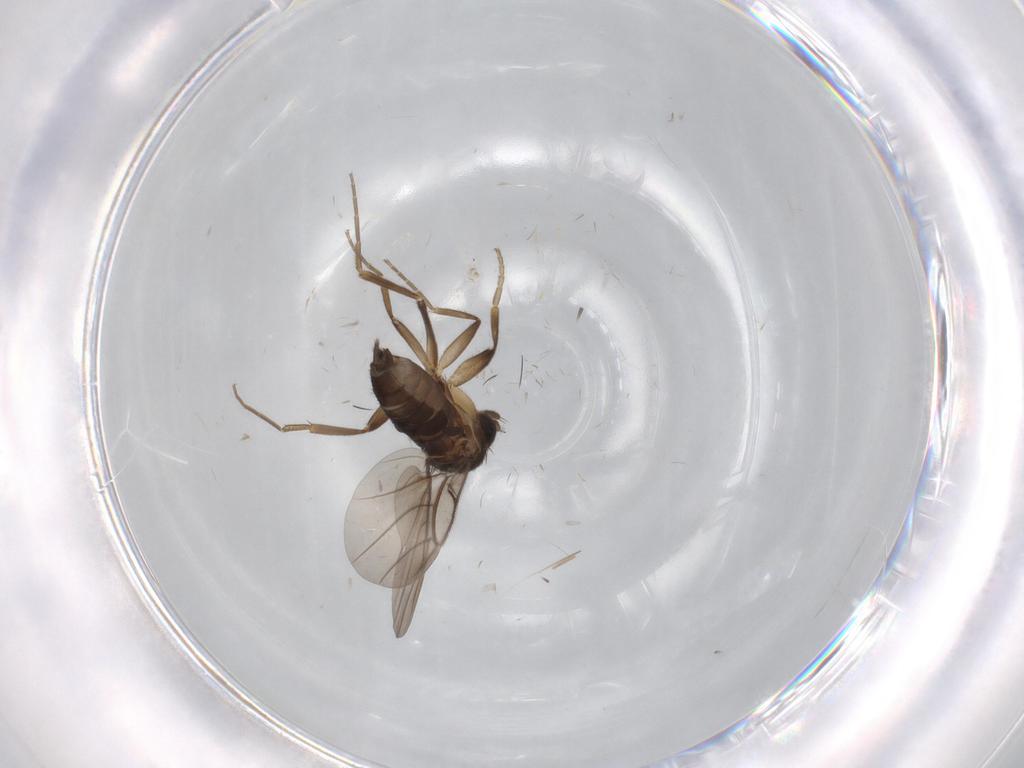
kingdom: Animalia
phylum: Arthropoda
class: Insecta
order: Diptera
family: Phoridae
